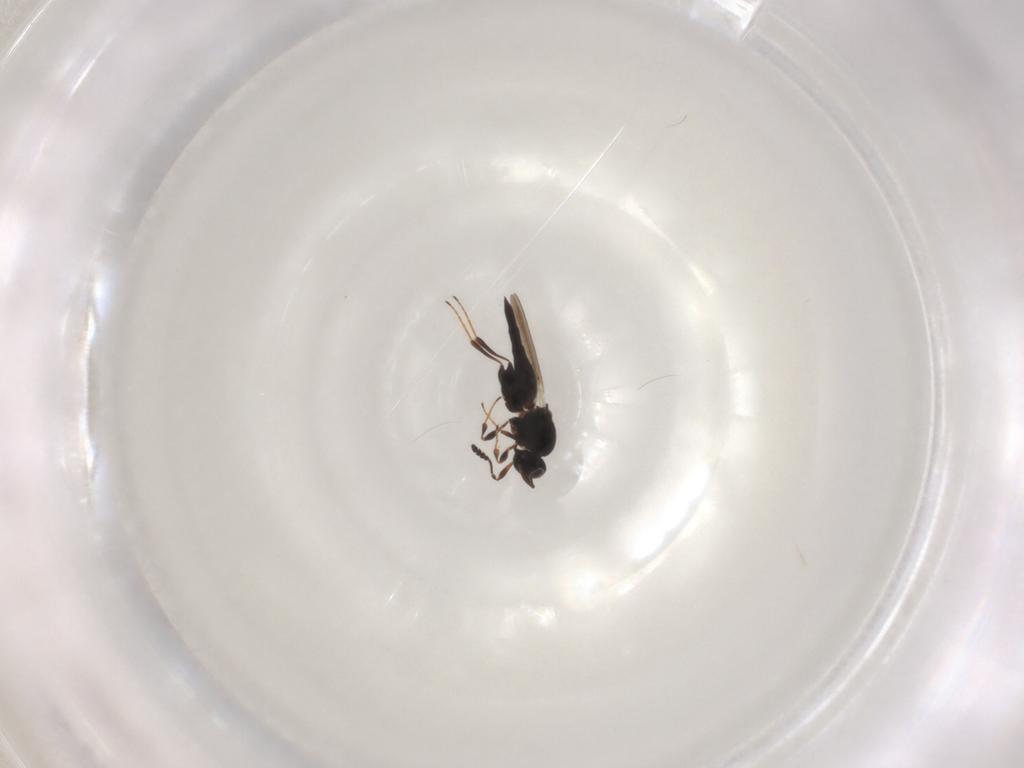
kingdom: Animalia
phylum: Arthropoda
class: Insecta
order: Hymenoptera
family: Platygastridae
